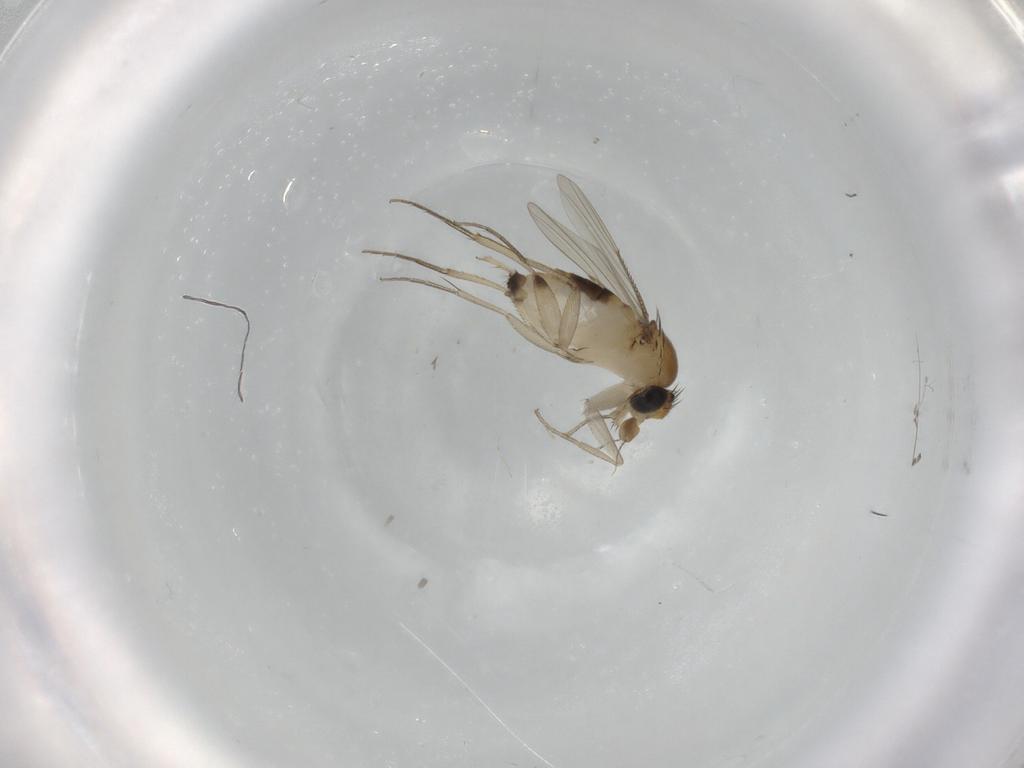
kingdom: Animalia
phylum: Arthropoda
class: Insecta
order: Diptera
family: Phoridae
